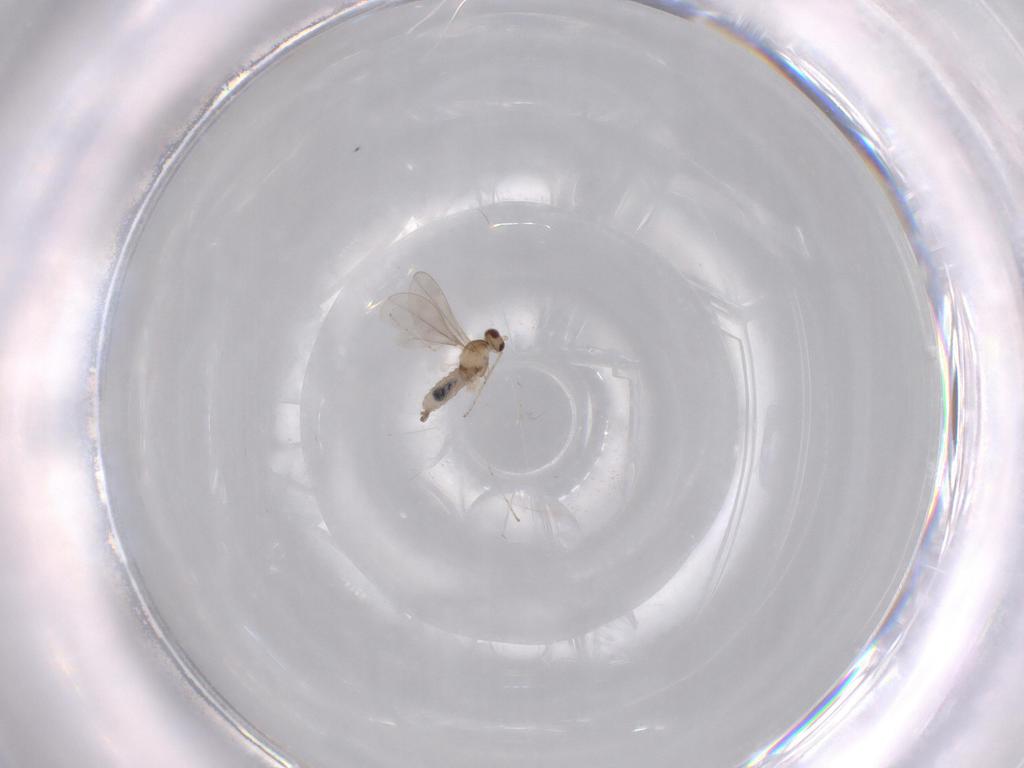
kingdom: Animalia
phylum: Arthropoda
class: Insecta
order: Diptera
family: Cecidomyiidae
